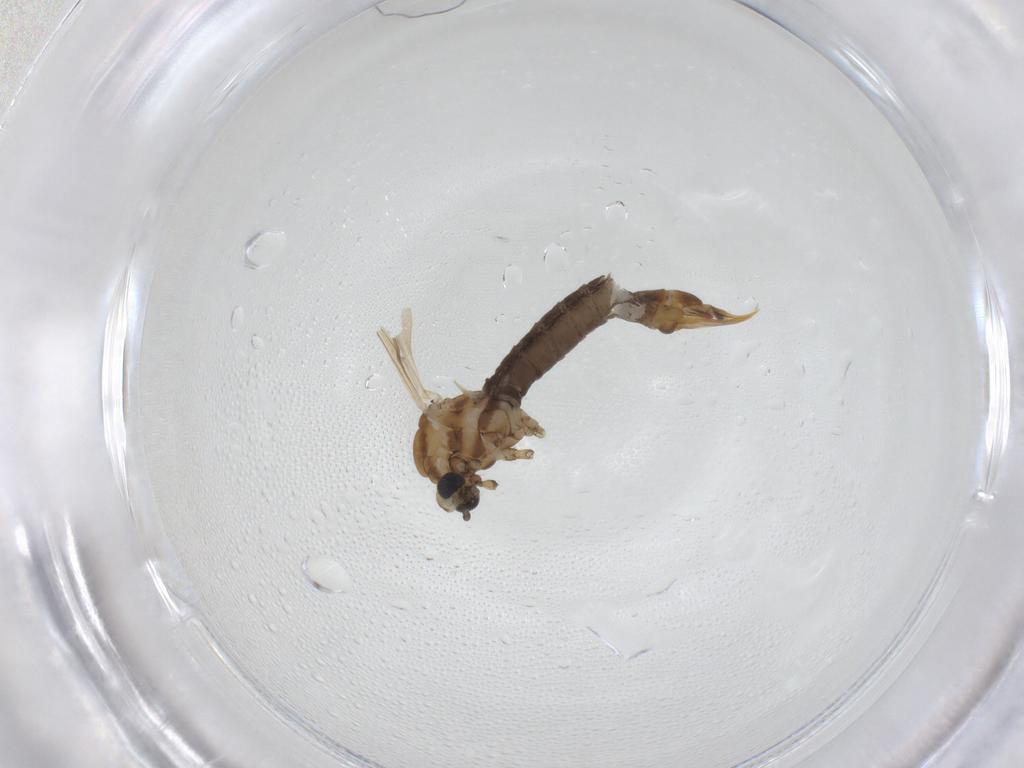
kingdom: Animalia
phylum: Arthropoda
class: Insecta
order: Diptera
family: Limoniidae
